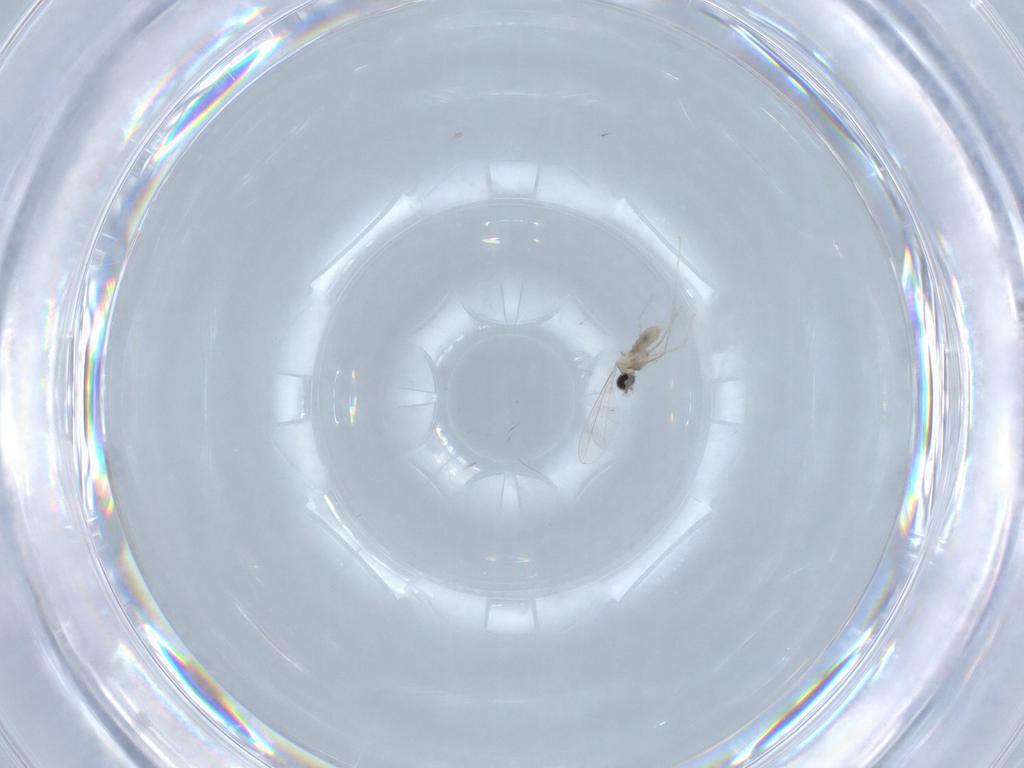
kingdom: Animalia
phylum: Arthropoda
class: Insecta
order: Diptera
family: Cecidomyiidae
